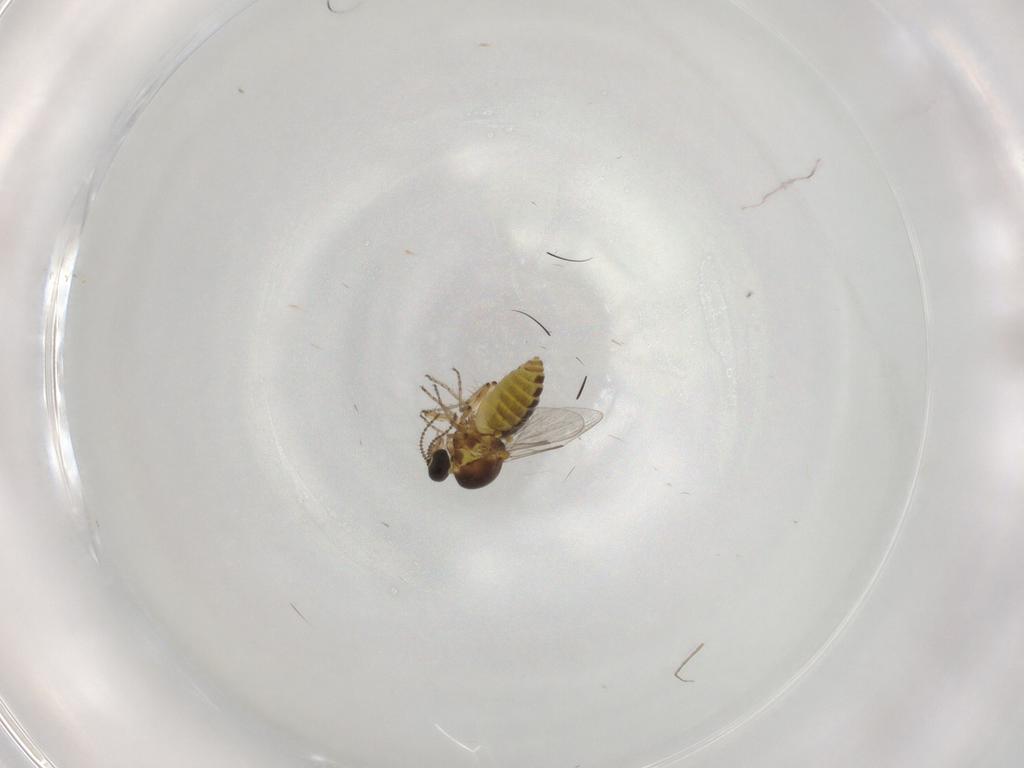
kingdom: Animalia
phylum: Arthropoda
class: Insecta
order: Diptera
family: Ceratopogonidae
